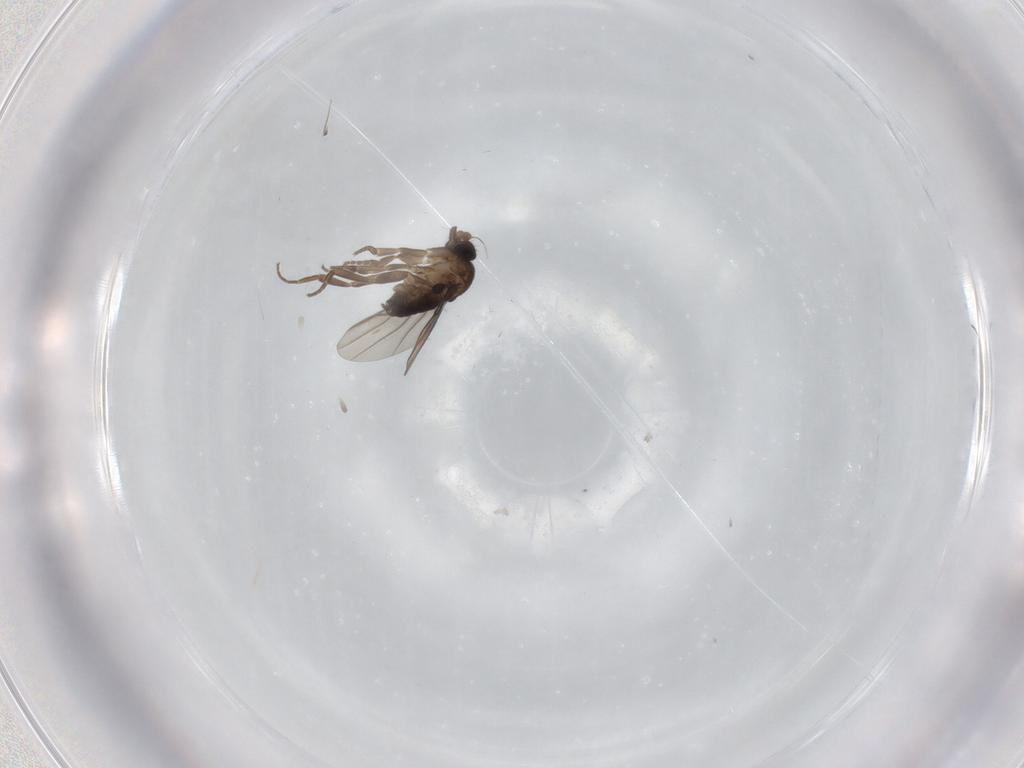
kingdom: Animalia
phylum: Arthropoda
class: Insecta
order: Diptera
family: Phoridae
